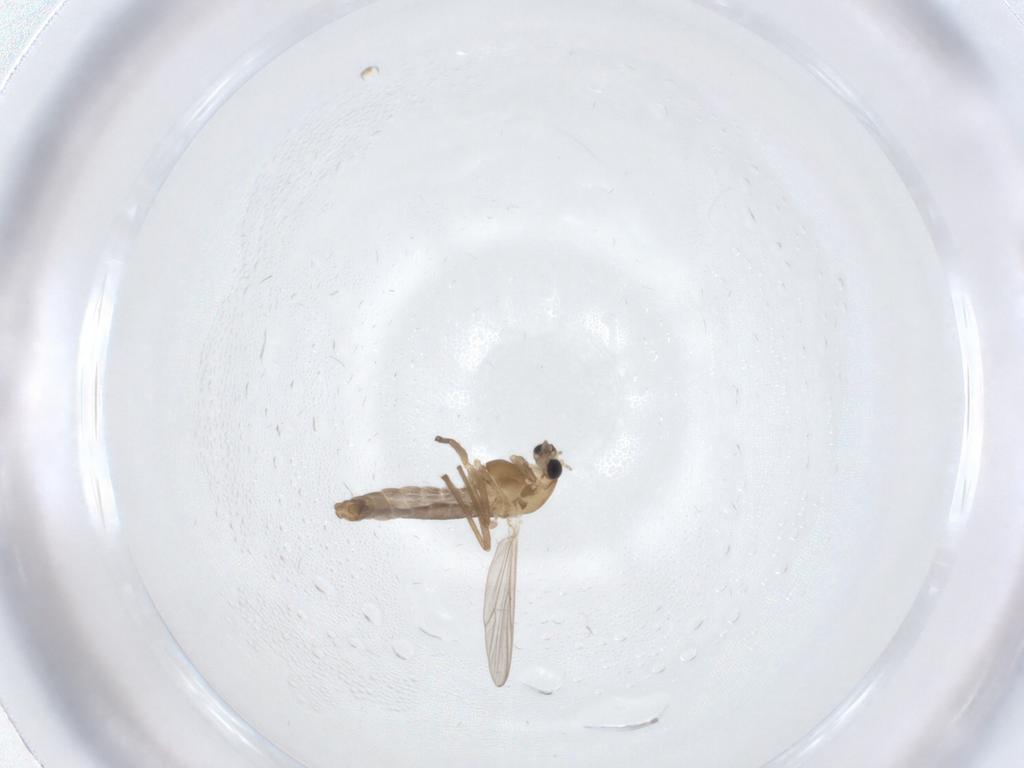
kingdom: Animalia
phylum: Arthropoda
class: Insecta
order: Diptera
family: Chironomidae
